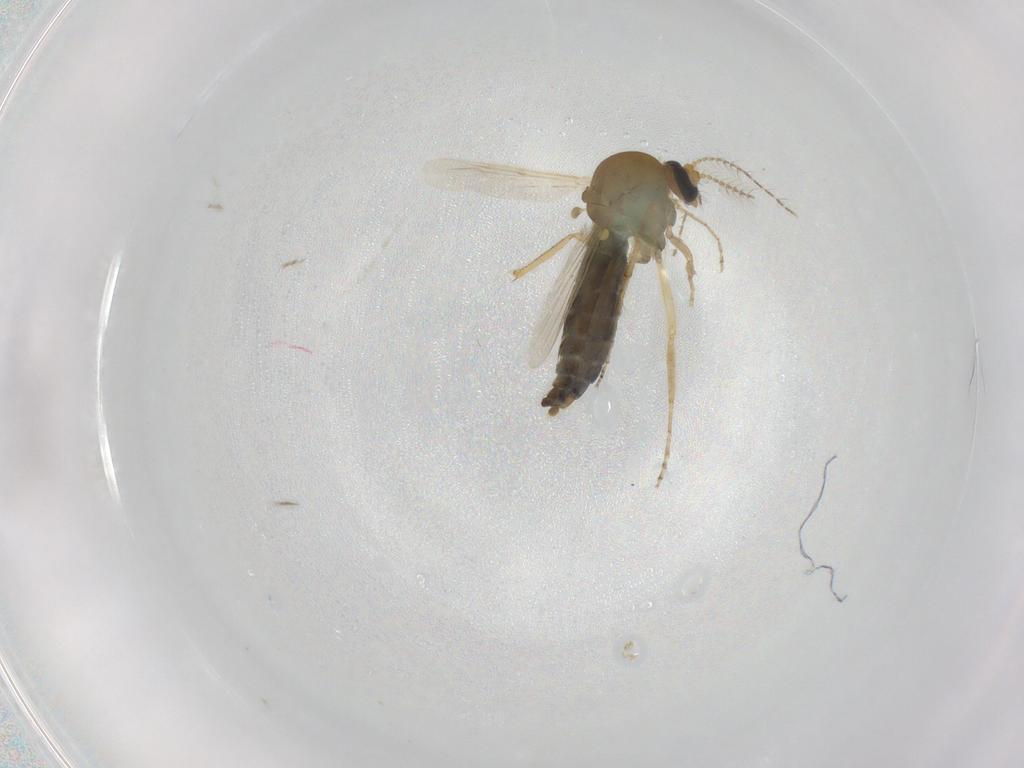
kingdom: Animalia
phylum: Arthropoda
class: Insecta
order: Diptera
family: Ceratopogonidae
